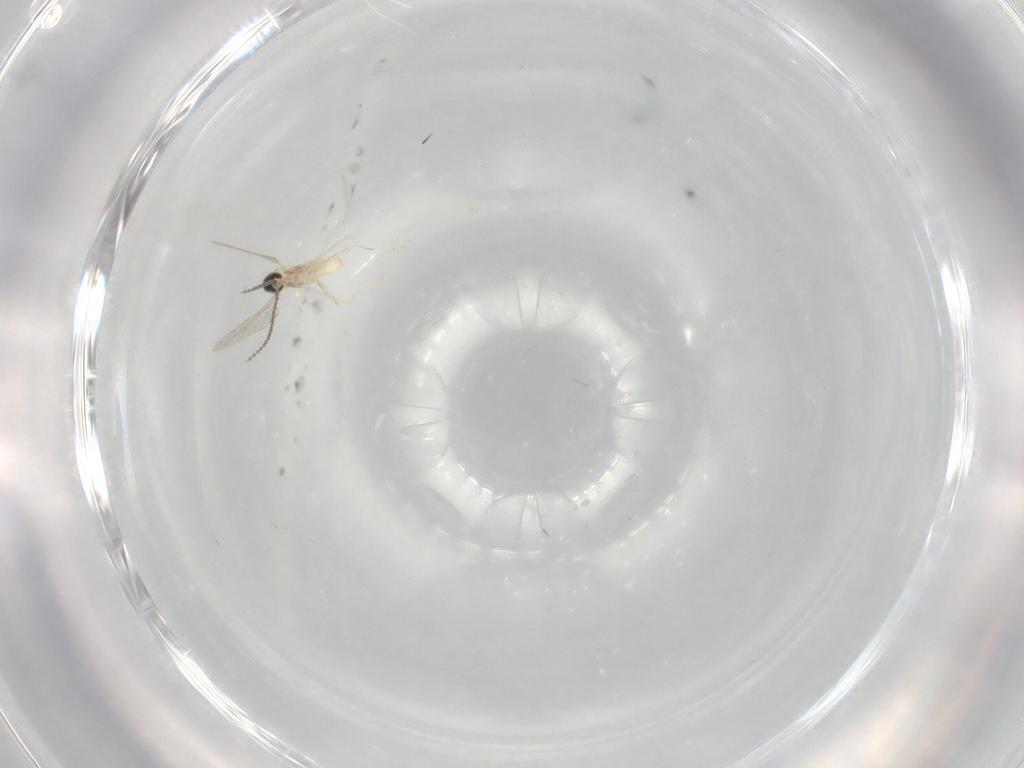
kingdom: Animalia
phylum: Arthropoda
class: Insecta
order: Diptera
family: Cecidomyiidae
